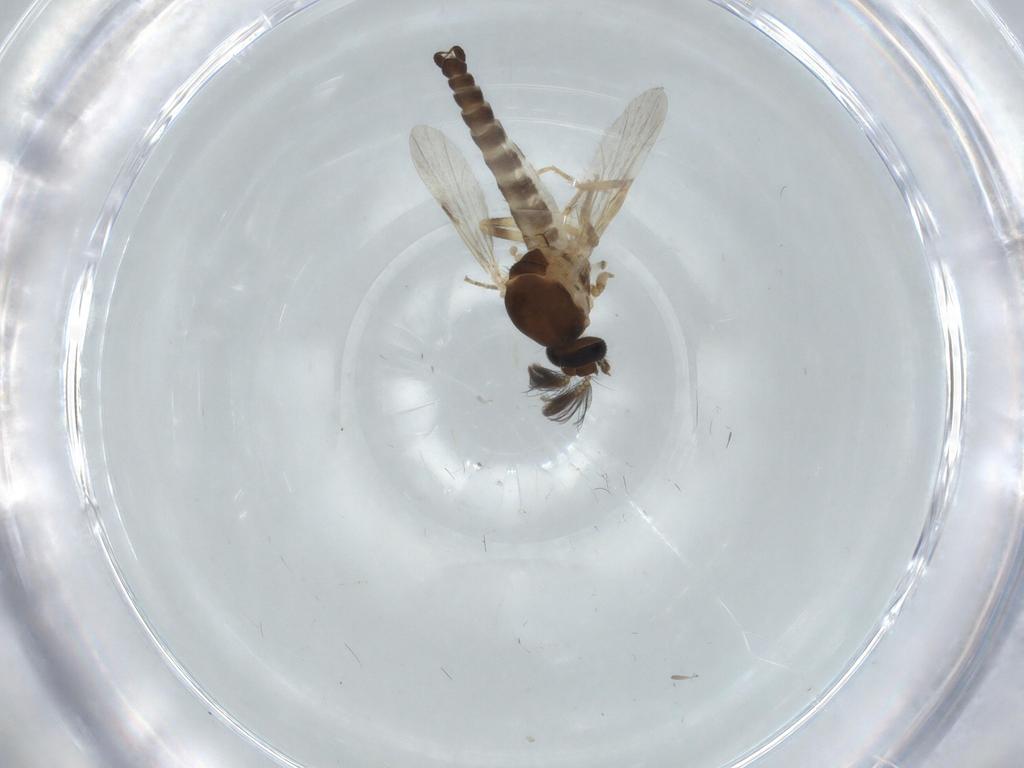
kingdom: Animalia
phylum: Arthropoda
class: Insecta
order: Diptera
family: Ceratopogonidae
